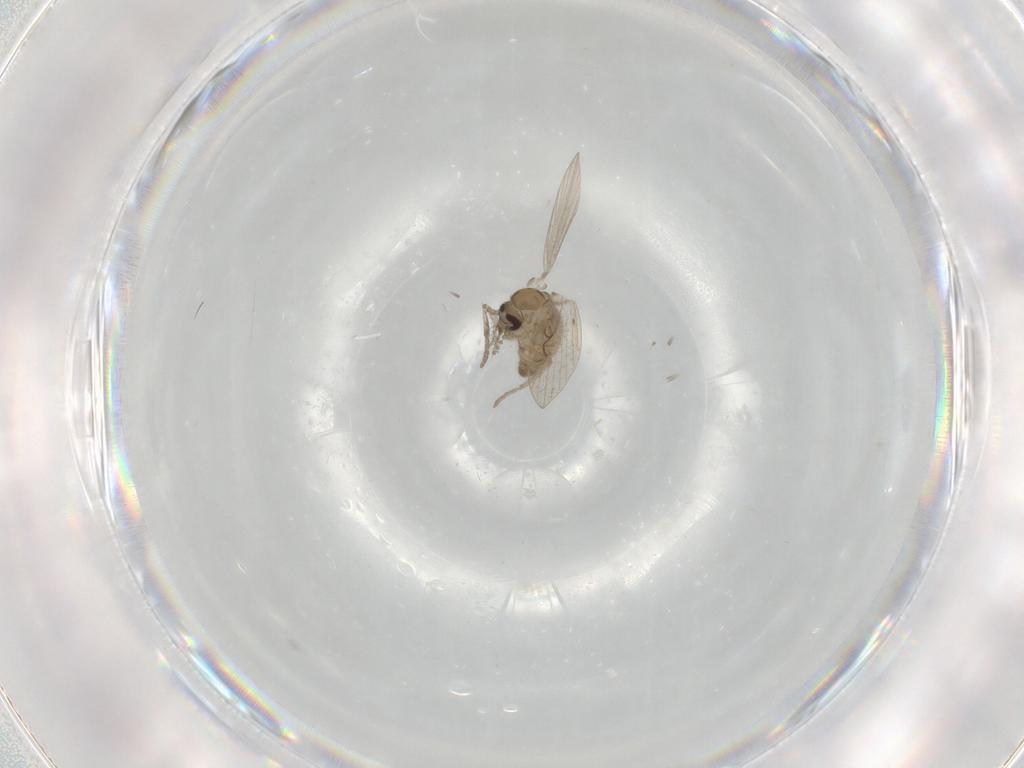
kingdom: Animalia
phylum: Arthropoda
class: Insecta
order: Diptera
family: Psychodidae
